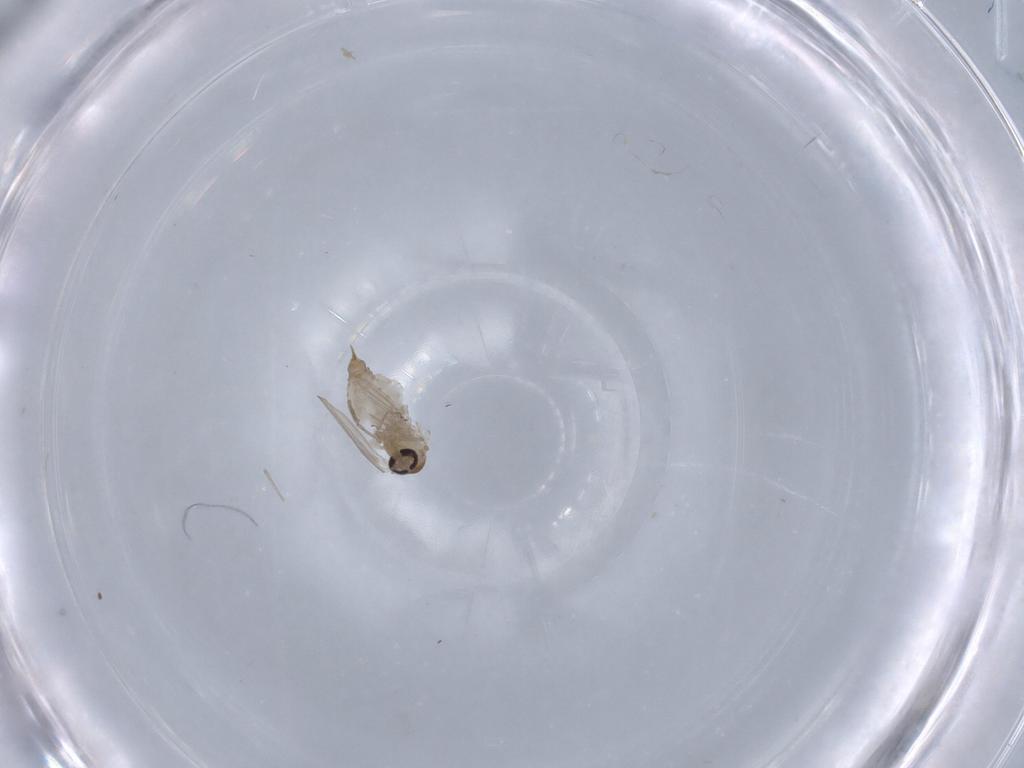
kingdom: Animalia
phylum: Arthropoda
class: Insecta
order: Diptera
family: Psychodidae
